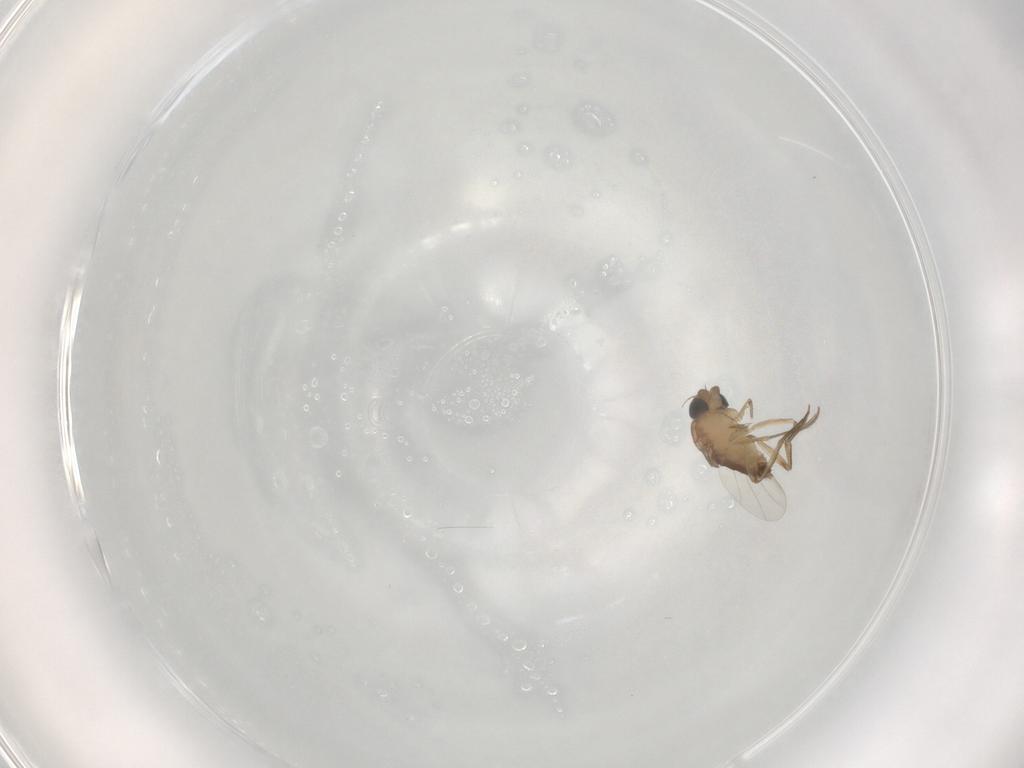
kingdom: Animalia
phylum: Arthropoda
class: Insecta
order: Diptera
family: Phoridae
